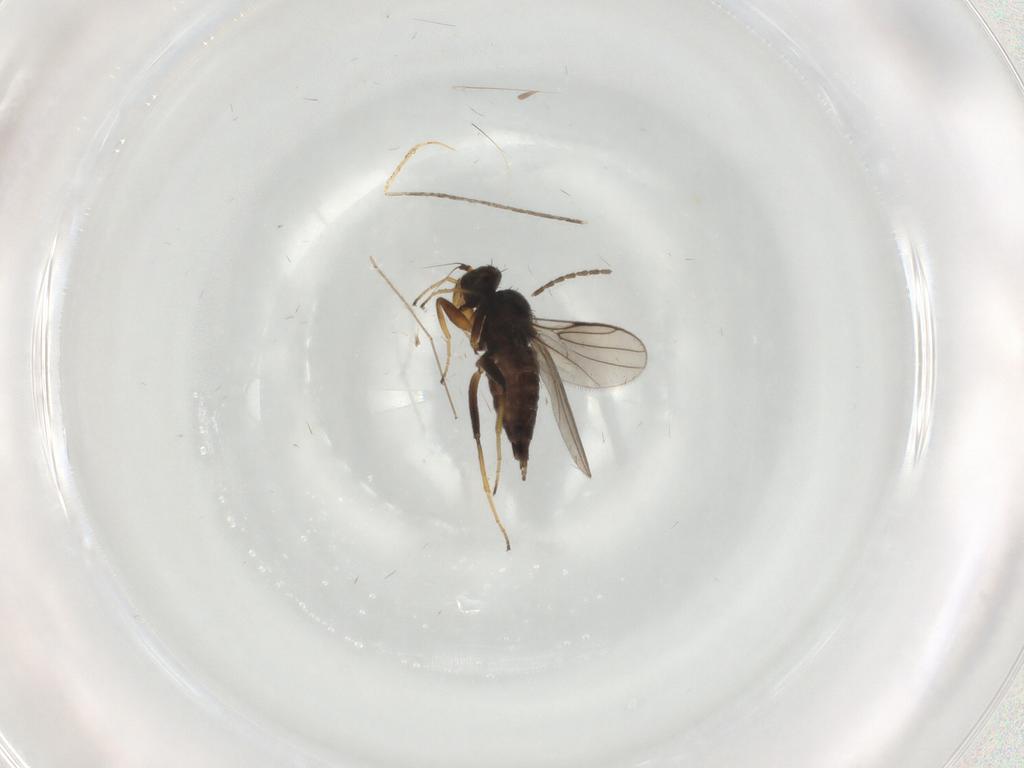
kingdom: Animalia
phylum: Arthropoda
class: Insecta
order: Diptera
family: Hybotidae
